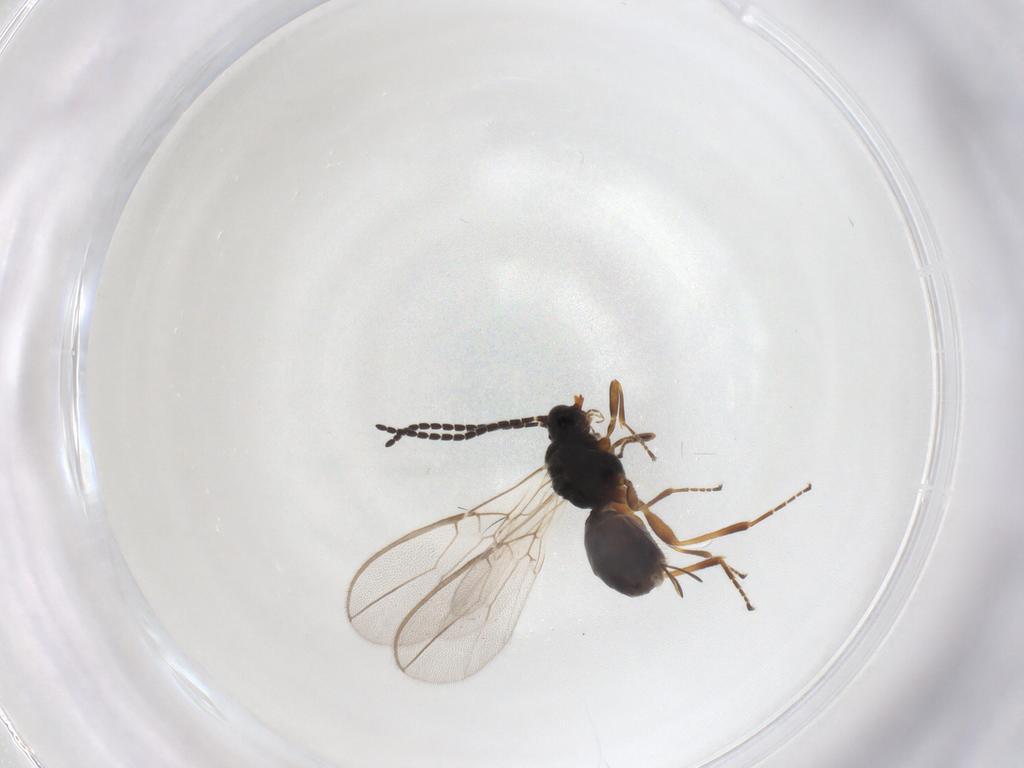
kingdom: Animalia
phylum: Arthropoda
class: Insecta
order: Hymenoptera
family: Braconidae
